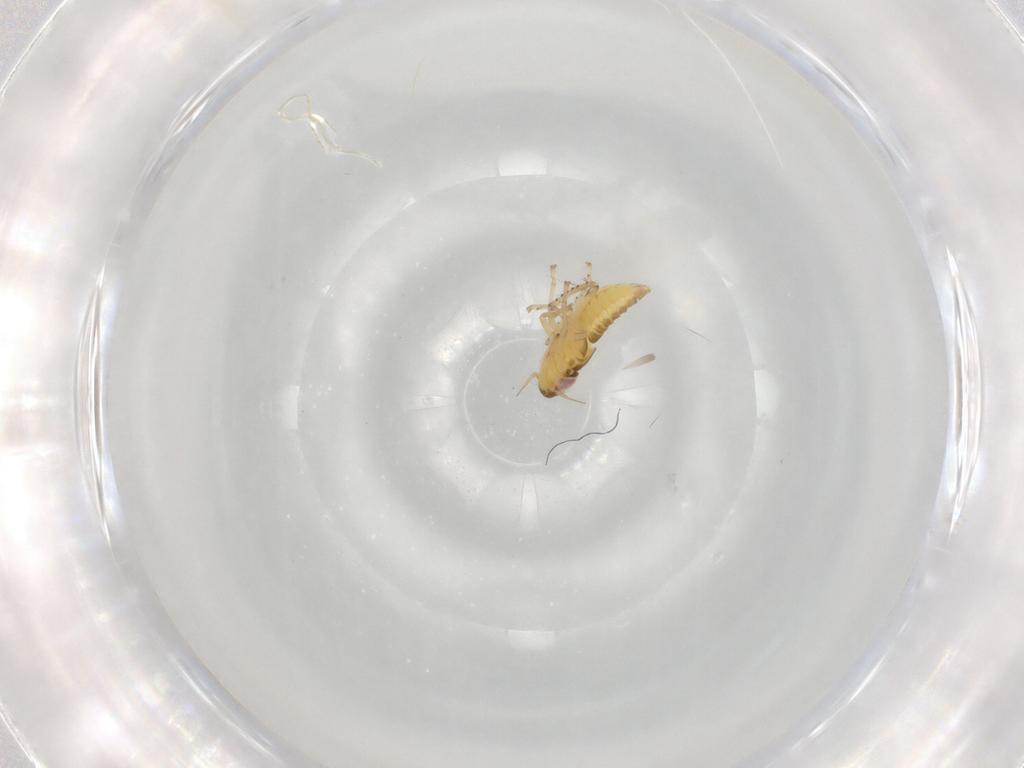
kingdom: Animalia
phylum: Arthropoda
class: Insecta
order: Hemiptera
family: Cicadellidae
